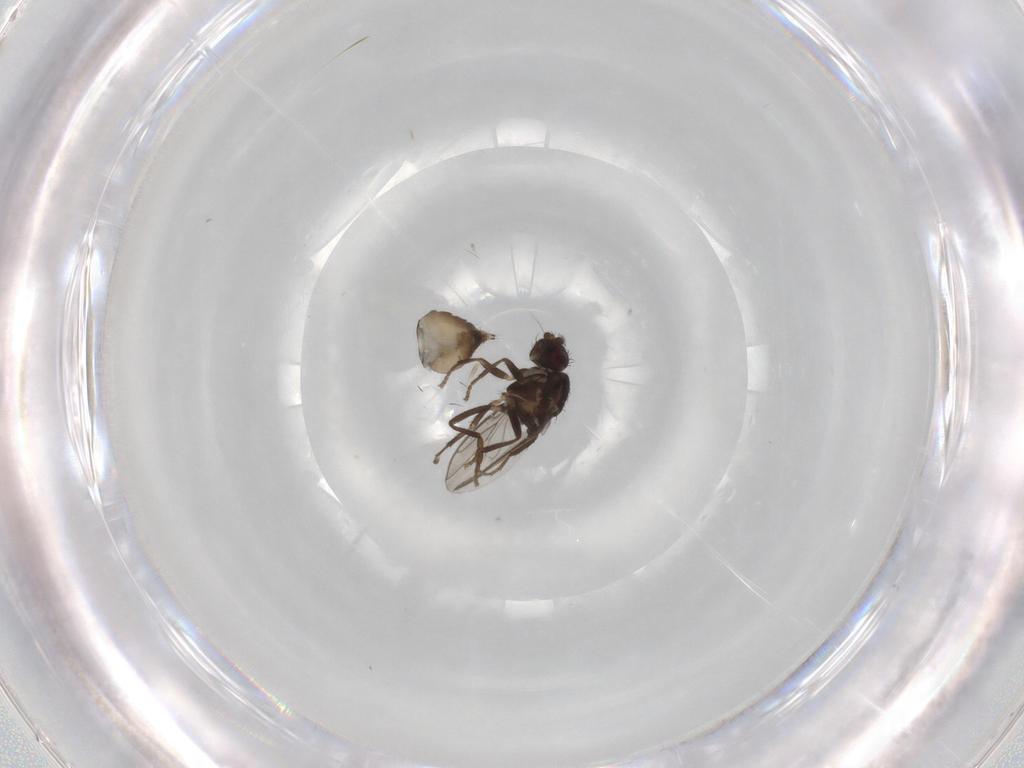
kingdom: Animalia
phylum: Arthropoda
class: Insecta
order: Diptera
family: Sphaeroceridae
